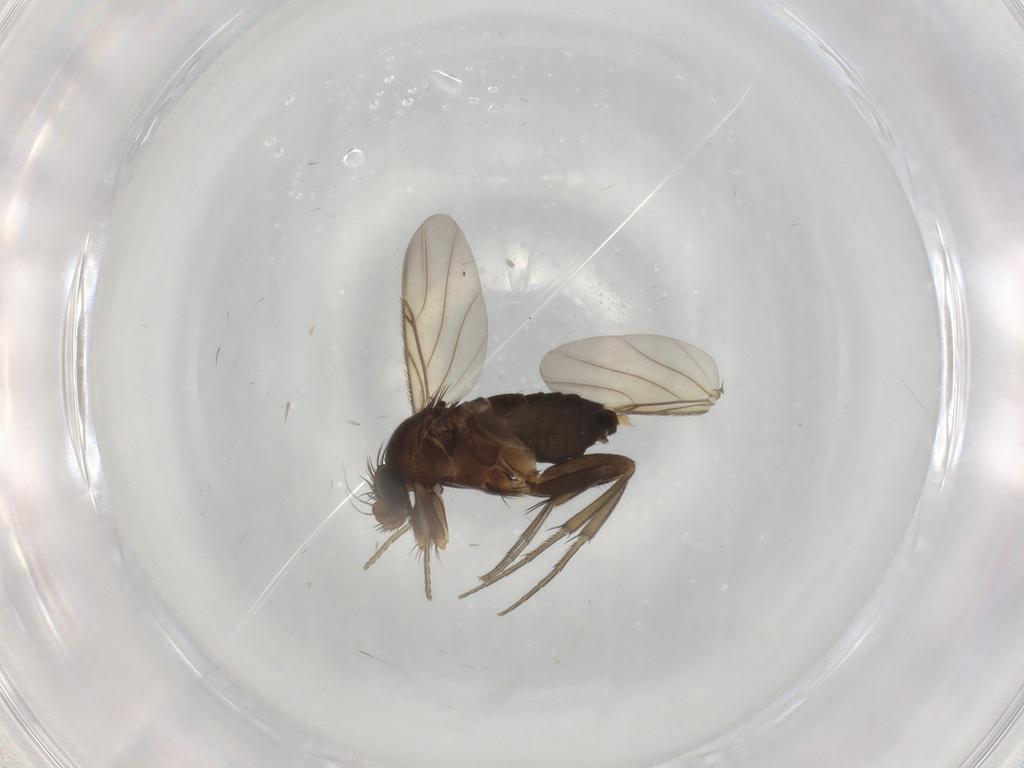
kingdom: Animalia
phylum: Arthropoda
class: Insecta
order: Diptera
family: Phoridae
